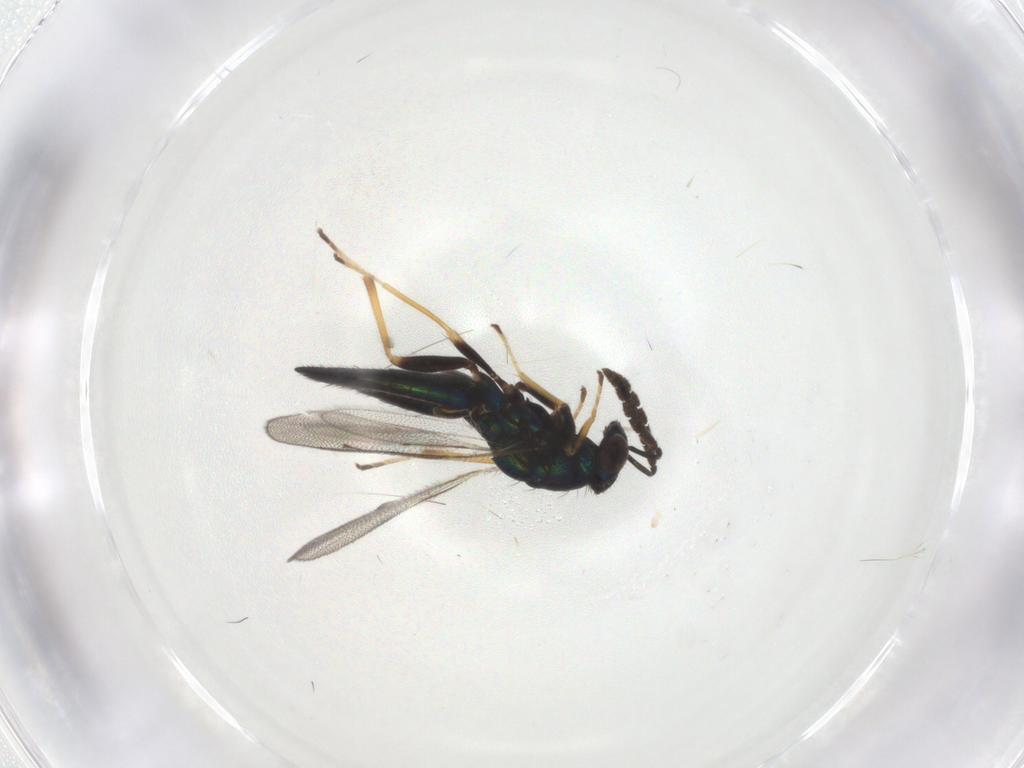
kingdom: Animalia
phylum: Arthropoda
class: Insecta
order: Hymenoptera
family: Eulophidae
